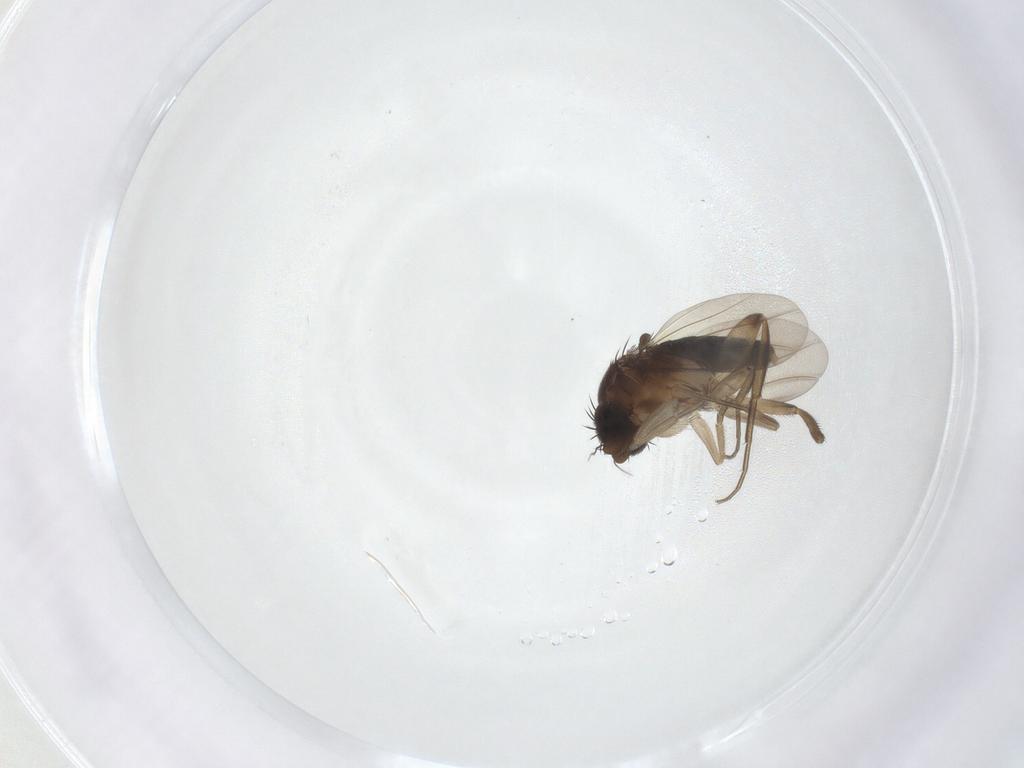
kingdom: Animalia
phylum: Arthropoda
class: Insecta
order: Diptera
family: Phoridae
